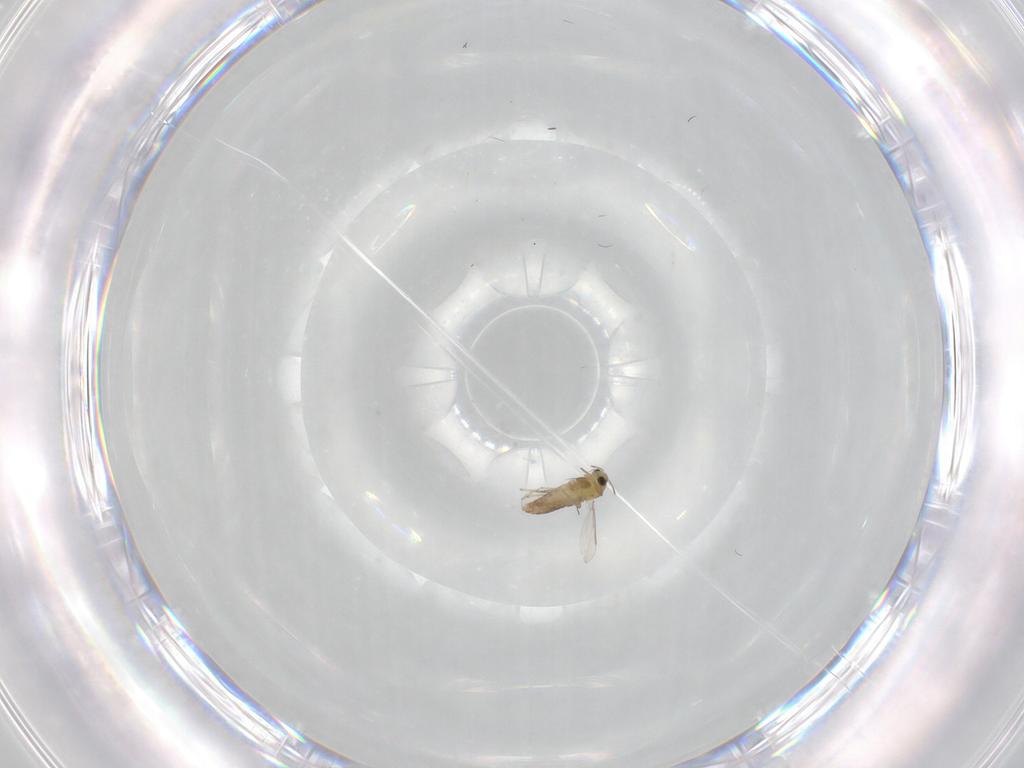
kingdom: Animalia
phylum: Arthropoda
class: Insecta
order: Diptera
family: Chironomidae
